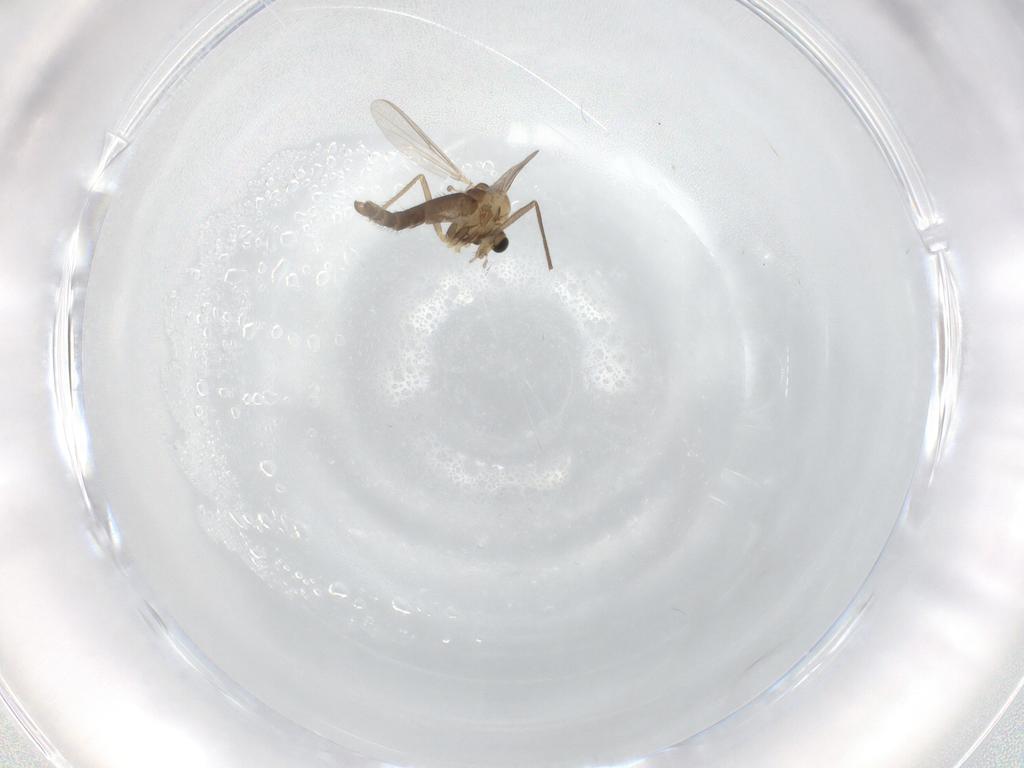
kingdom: Animalia
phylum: Arthropoda
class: Insecta
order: Diptera
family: Chironomidae
